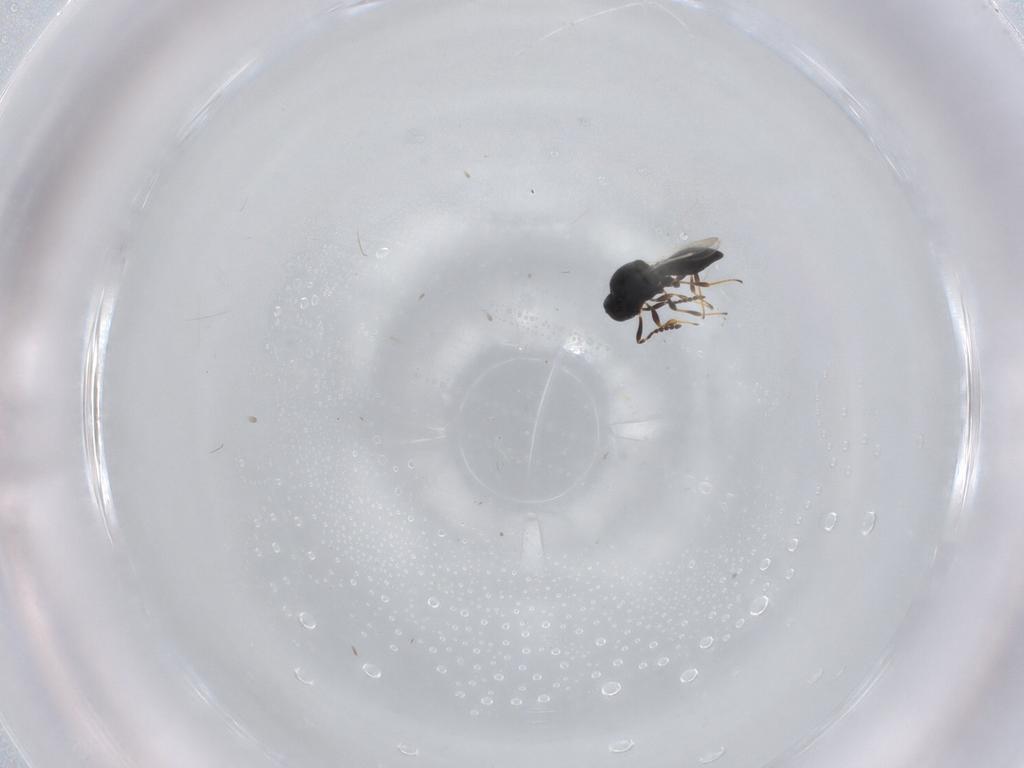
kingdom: Animalia
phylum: Arthropoda
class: Insecta
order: Hymenoptera
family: Platygastridae
